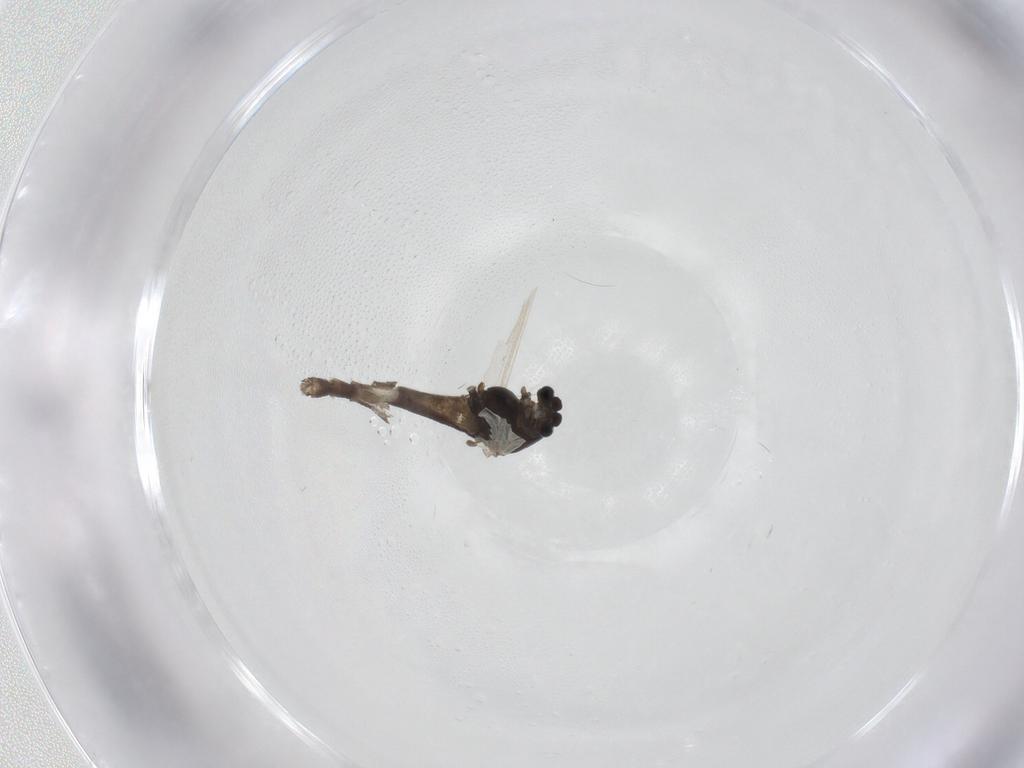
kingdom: Animalia
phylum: Arthropoda
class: Insecta
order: Diptera
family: Chironomidae
